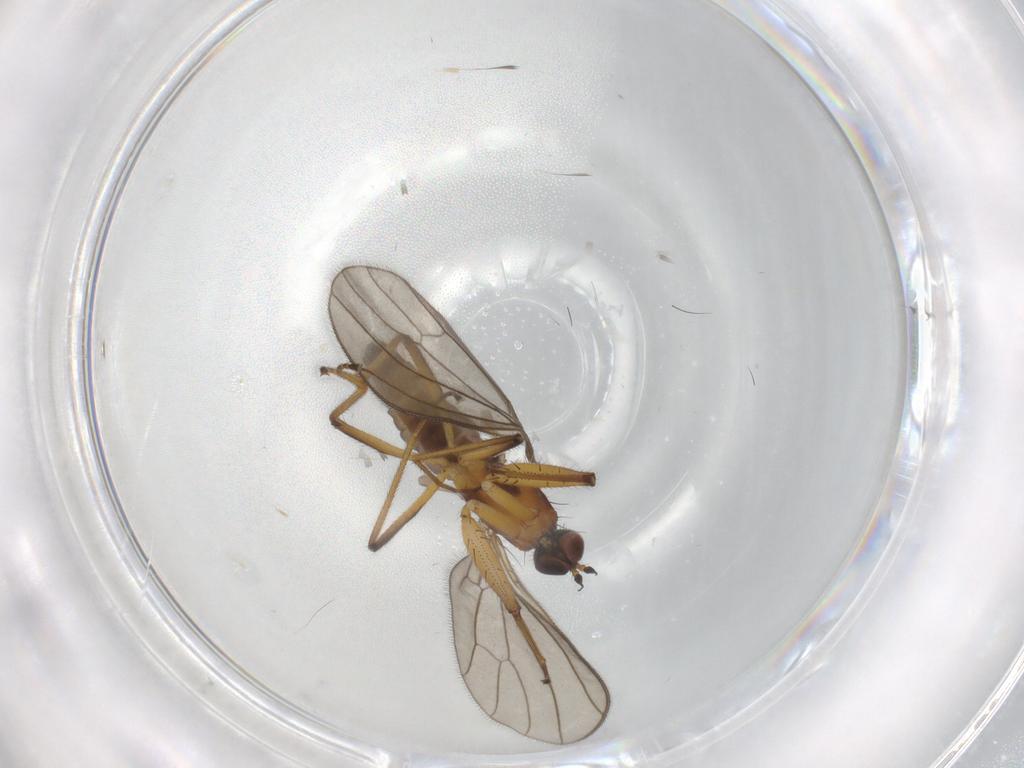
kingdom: Animalia
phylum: Arthropoda
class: Insecta
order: Diptera
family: Empididae
